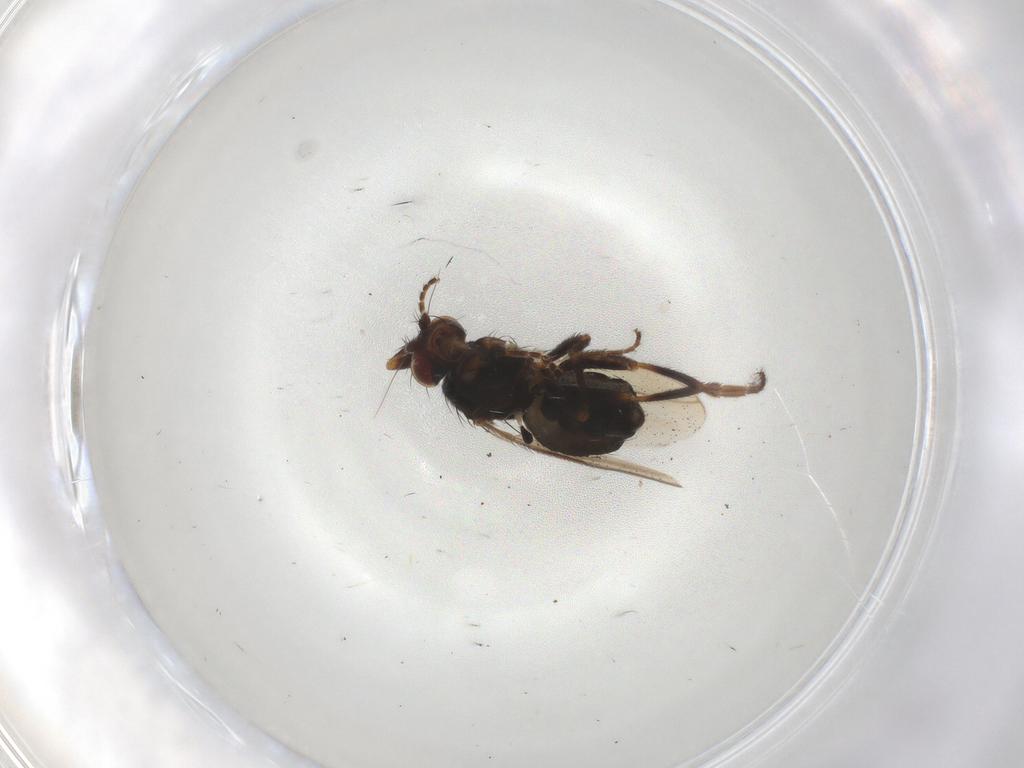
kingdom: Animalia
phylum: Arthropoda
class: Insecta
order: Diptera
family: Sphaeroceridae
